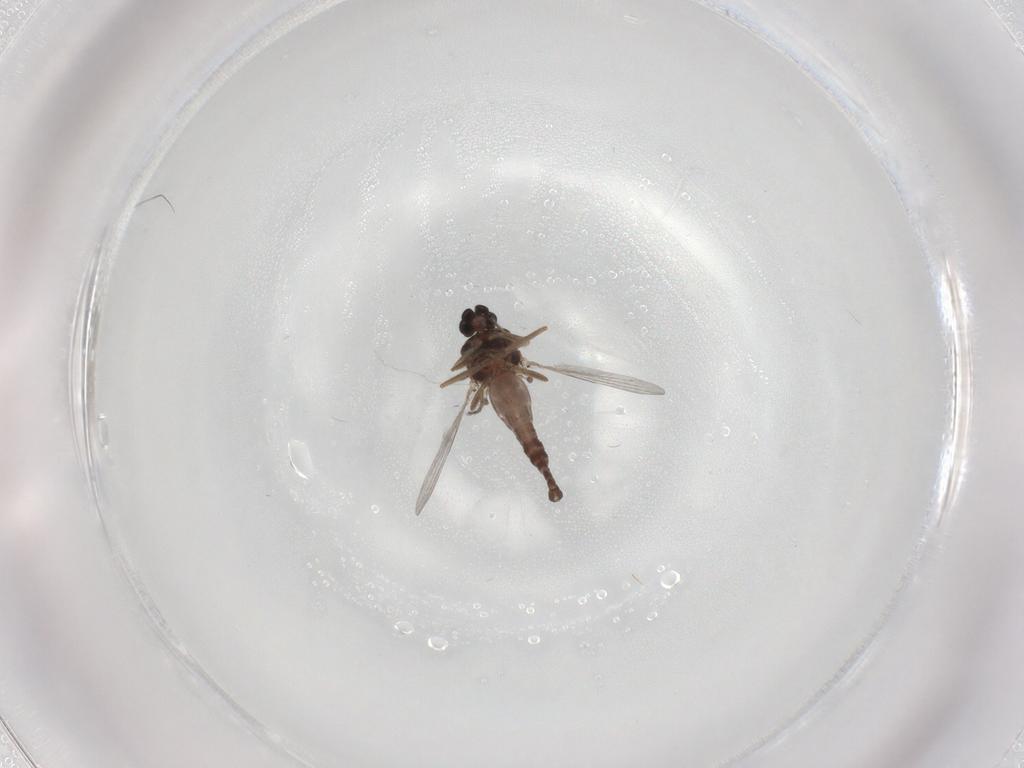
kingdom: Animalia
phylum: Arthropoda
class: Insecta
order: Diptera
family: Ceratopogonidae
